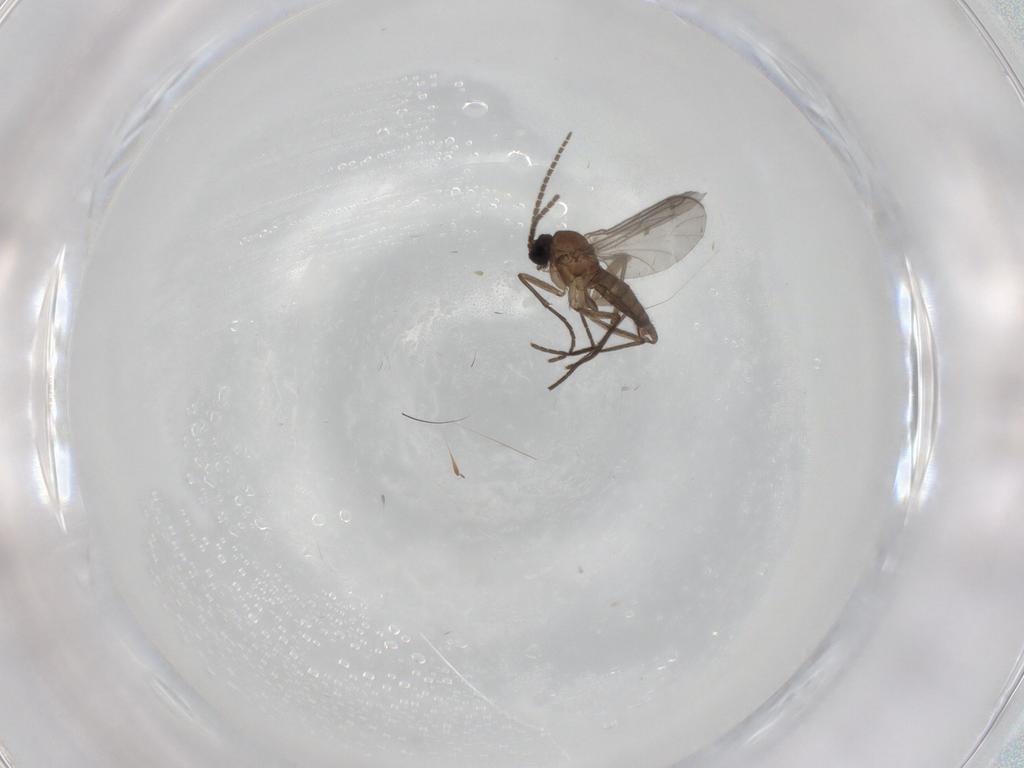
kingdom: Animalia
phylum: Arthropoda
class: Insecta
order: Diptera
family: Sciaridae
